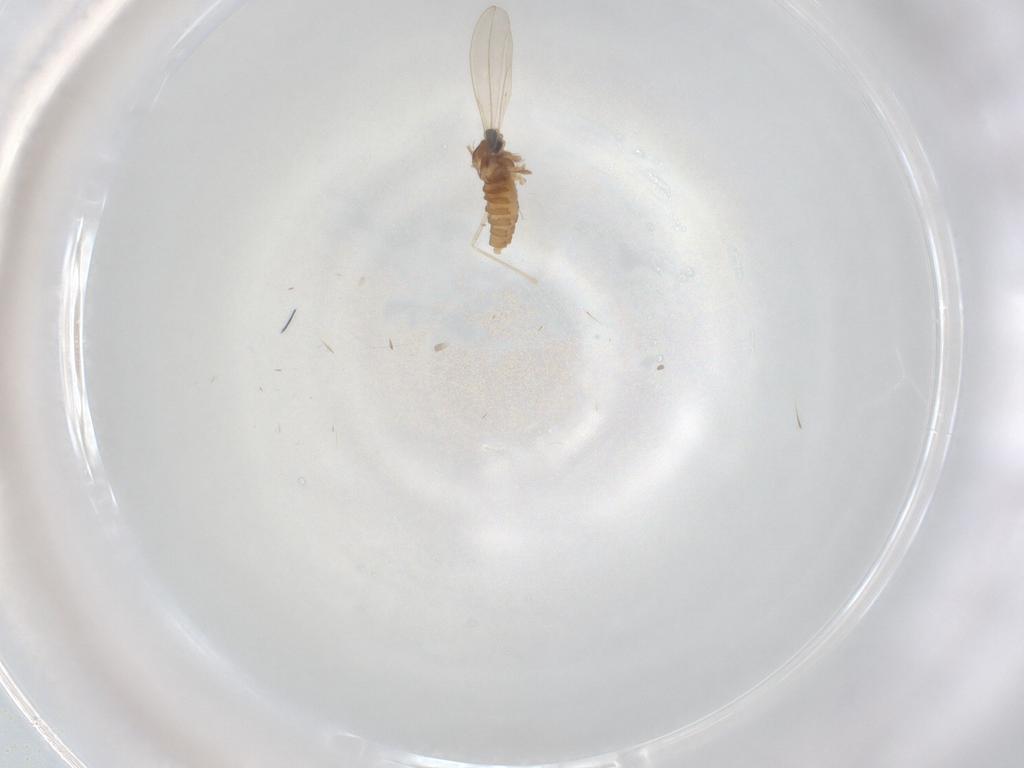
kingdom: Animalia
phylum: Arthropoda
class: Insecta
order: Diptera
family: Cecidomyiidae
